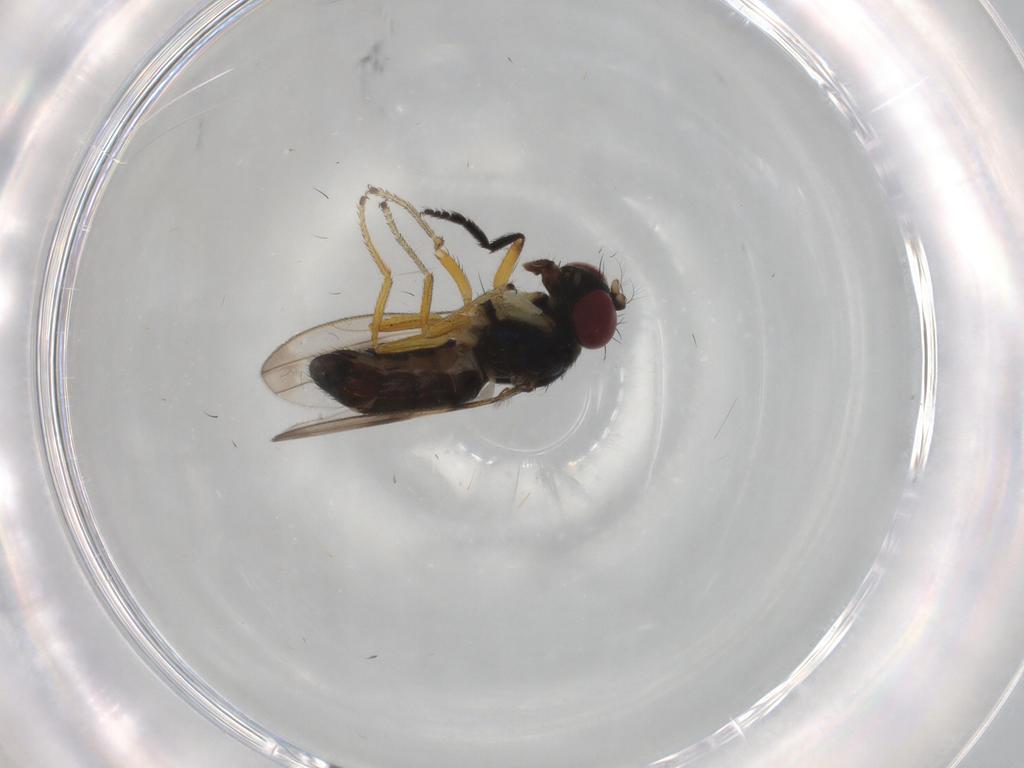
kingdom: Animalia
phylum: Arthropoda
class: Insecta
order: Diptera
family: Ephydridae
